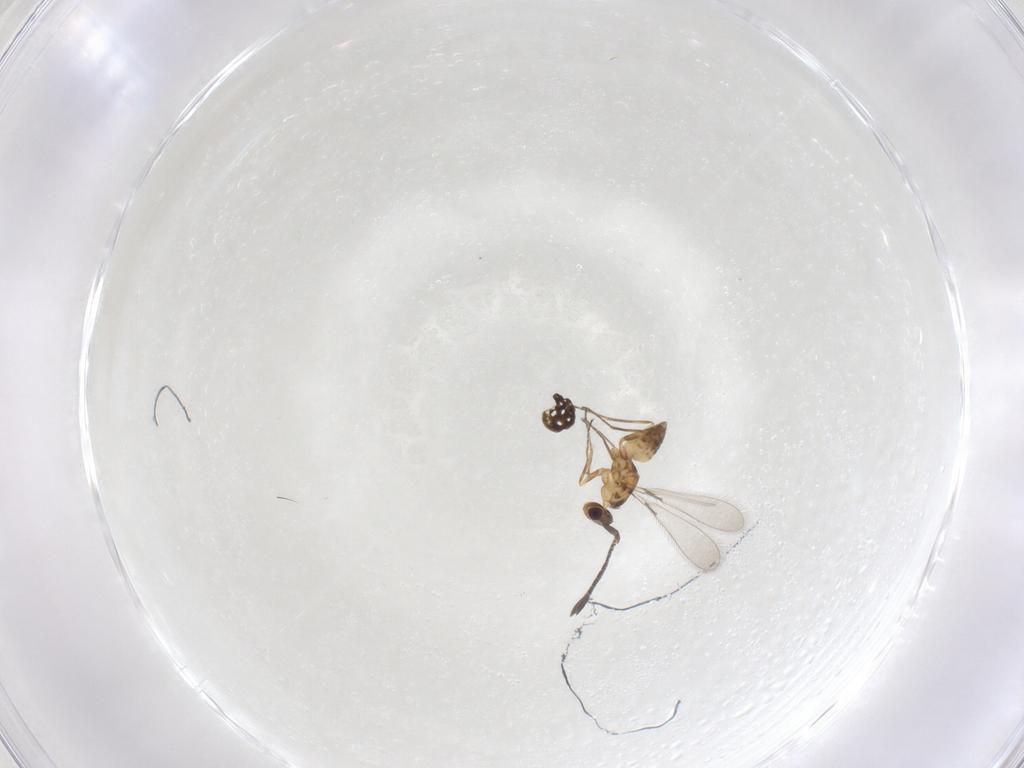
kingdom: Animalia
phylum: Arthropoda
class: Insecta
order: Hymenoptera
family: Mymaridae
